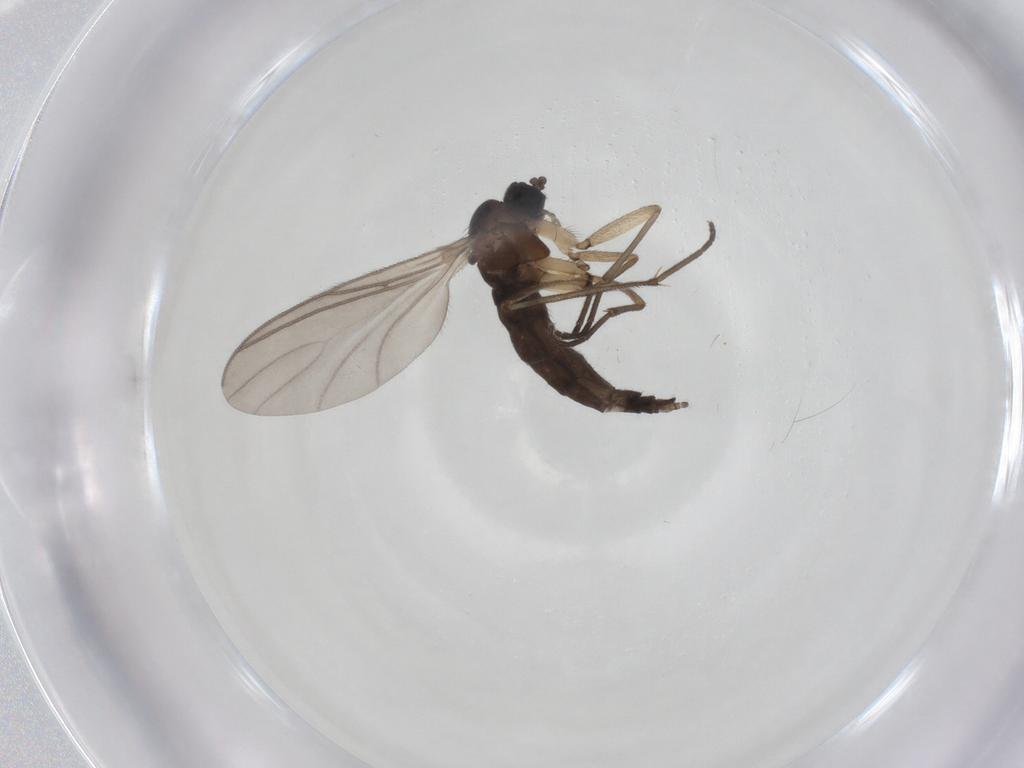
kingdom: Animalia
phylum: Arthropoda
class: Insecta
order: Diptera
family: Sciaridae
